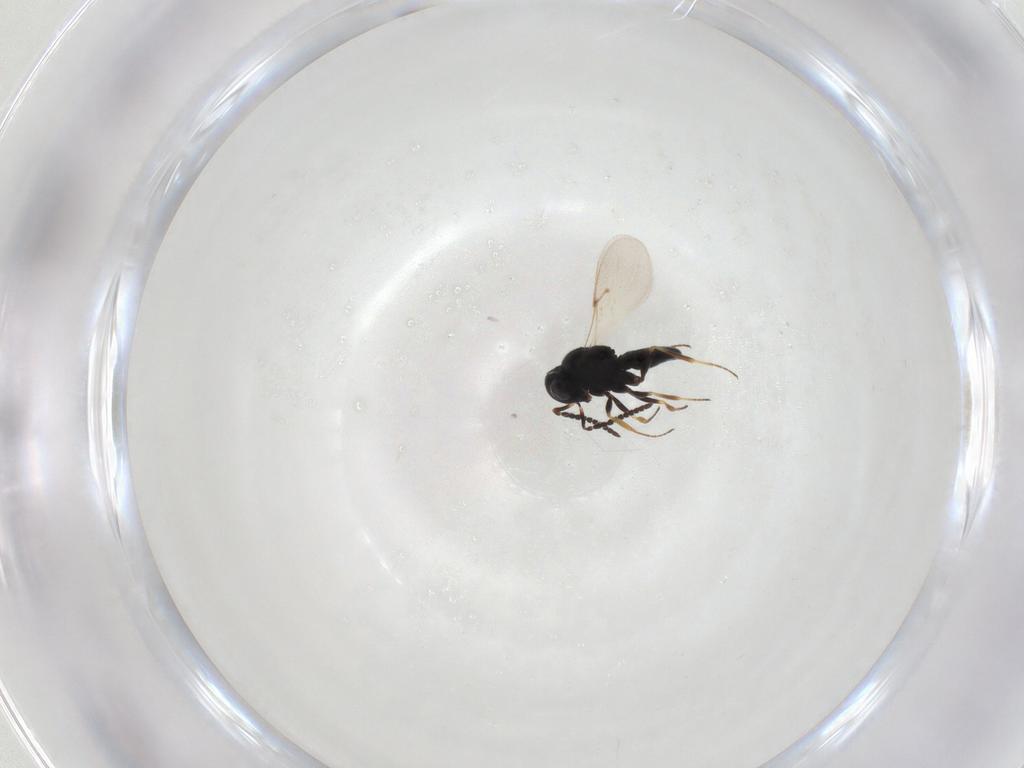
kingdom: Animalia
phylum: Arthropoda
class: Insecta
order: Hymenoptera
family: Scelionidae
